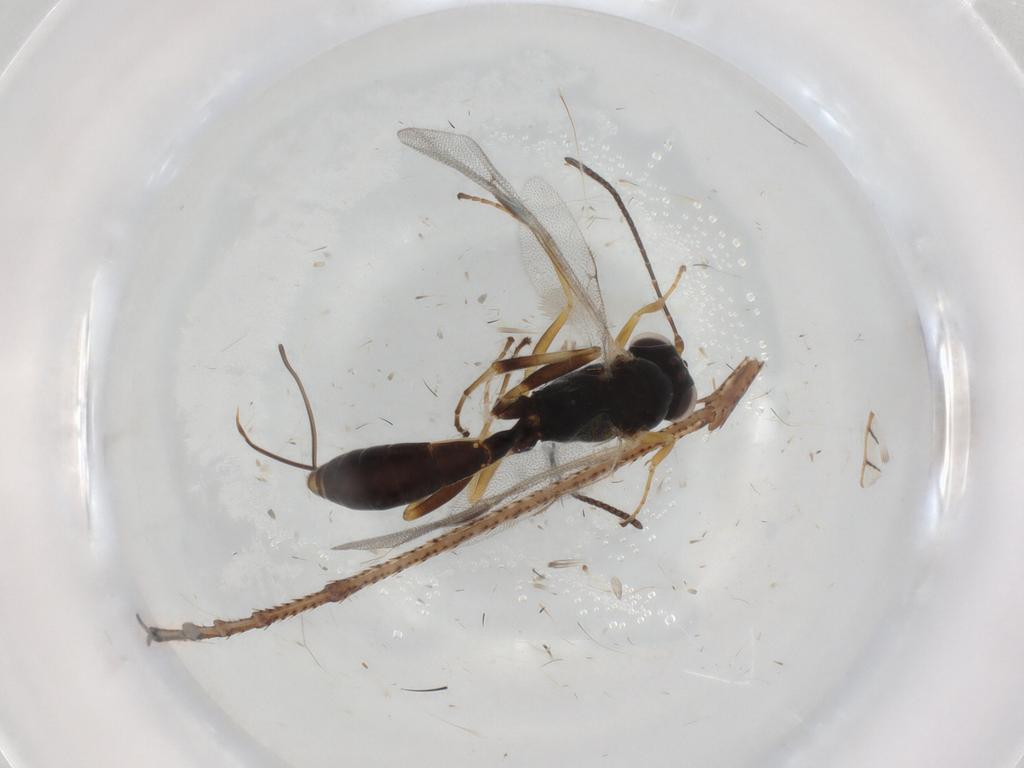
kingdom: Animalia
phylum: Arthropoda
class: Insecta
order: Hymenoptera
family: Ichneumonidae
